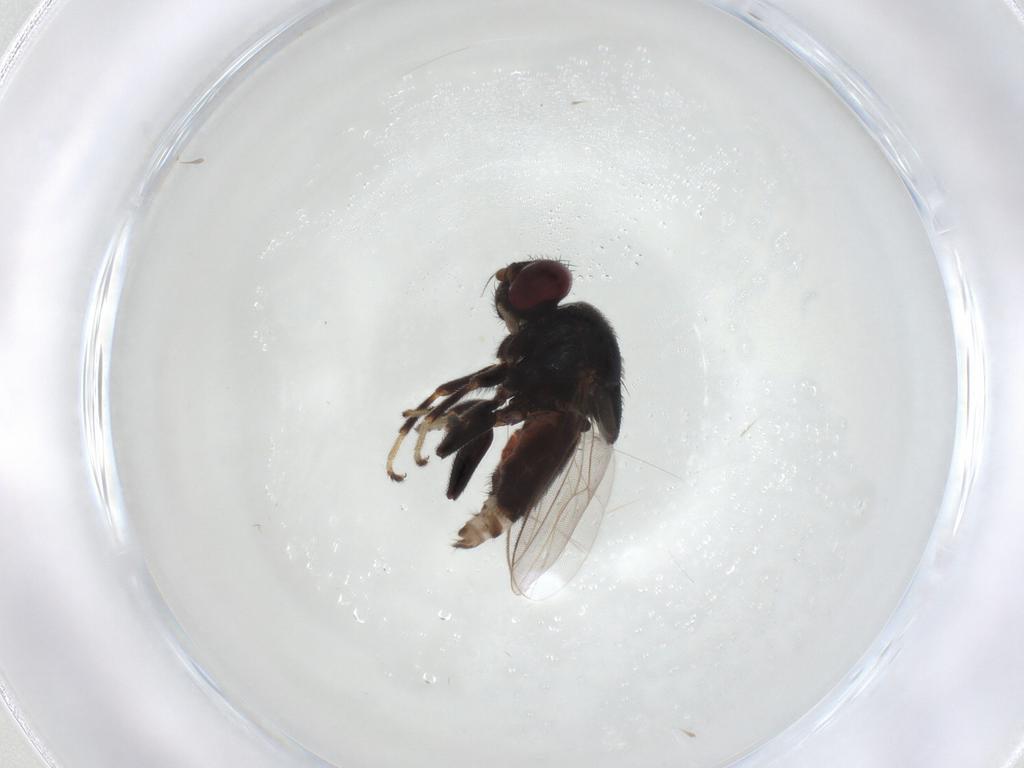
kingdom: Animalia
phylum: Arthropoda
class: Insecta
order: Diptera
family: Chloropidae
